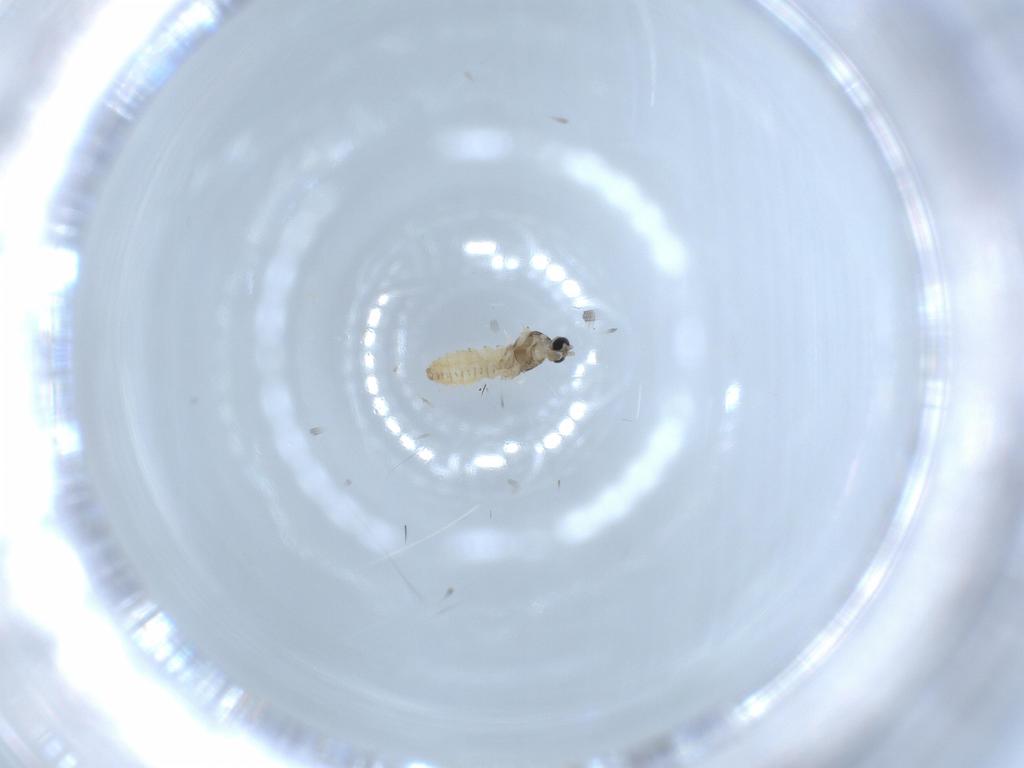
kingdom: Animalia
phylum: Arthropoda
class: Insecta
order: Diptera
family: Cecidomyiidae
